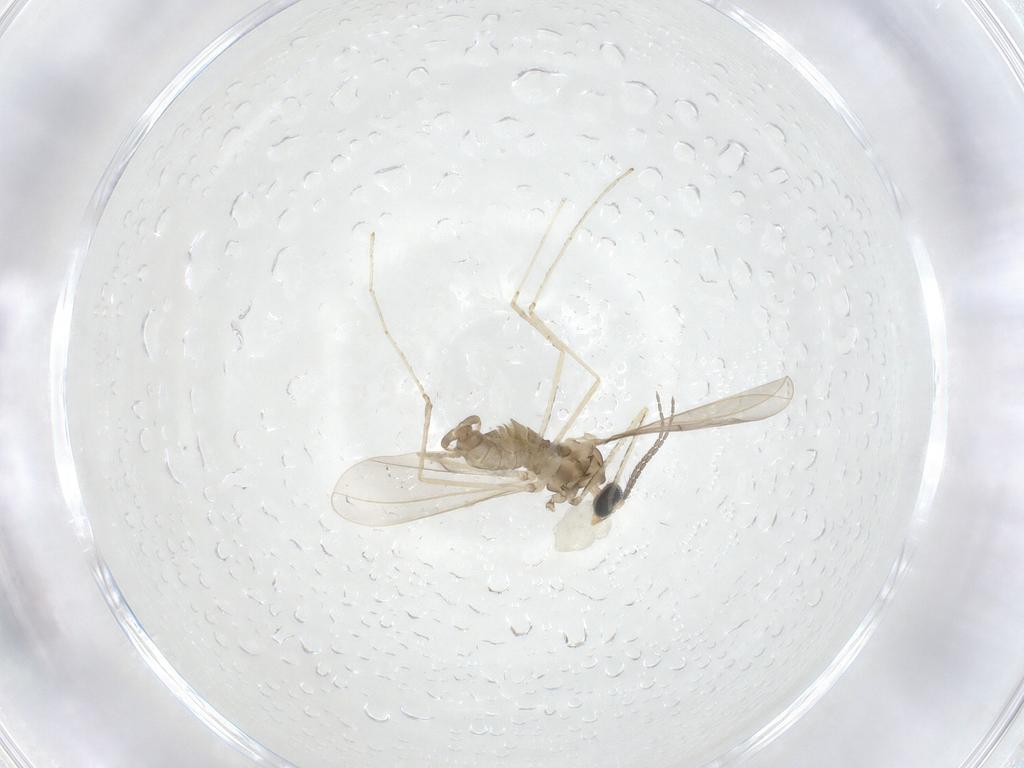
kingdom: Animalia
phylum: Arthropoda
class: Insecta
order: Diptera
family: Cecidomyiidae
